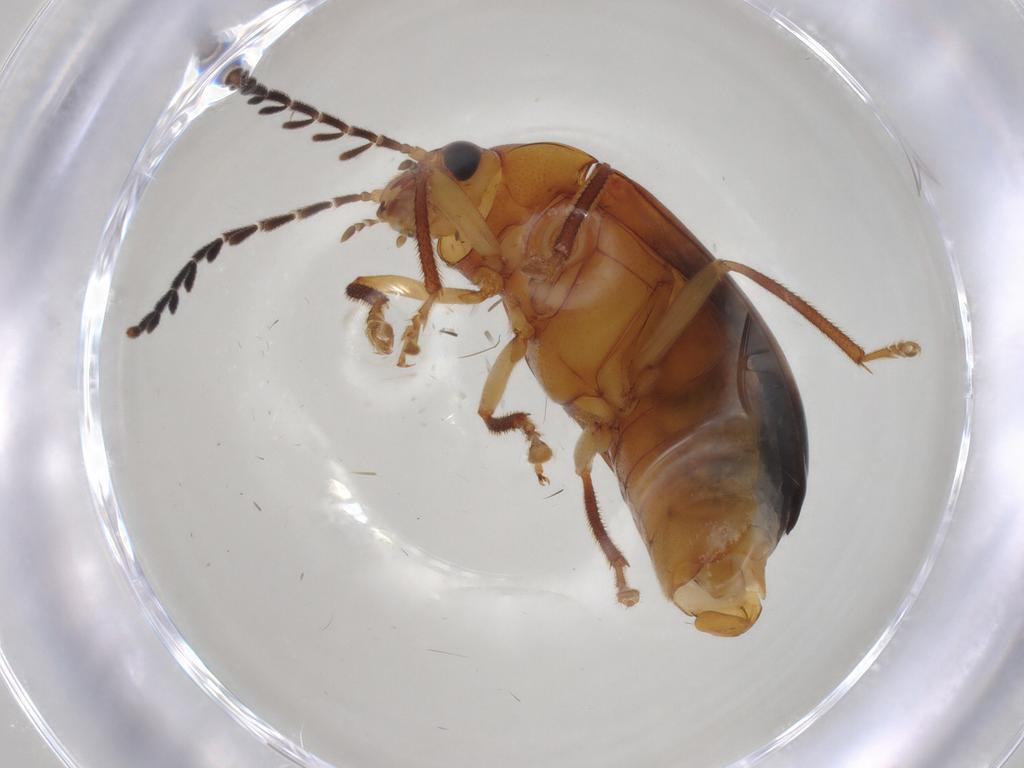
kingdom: Animalia
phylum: Arthropoda
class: Insecta
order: Coleoptera
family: Ptilodactylidae
